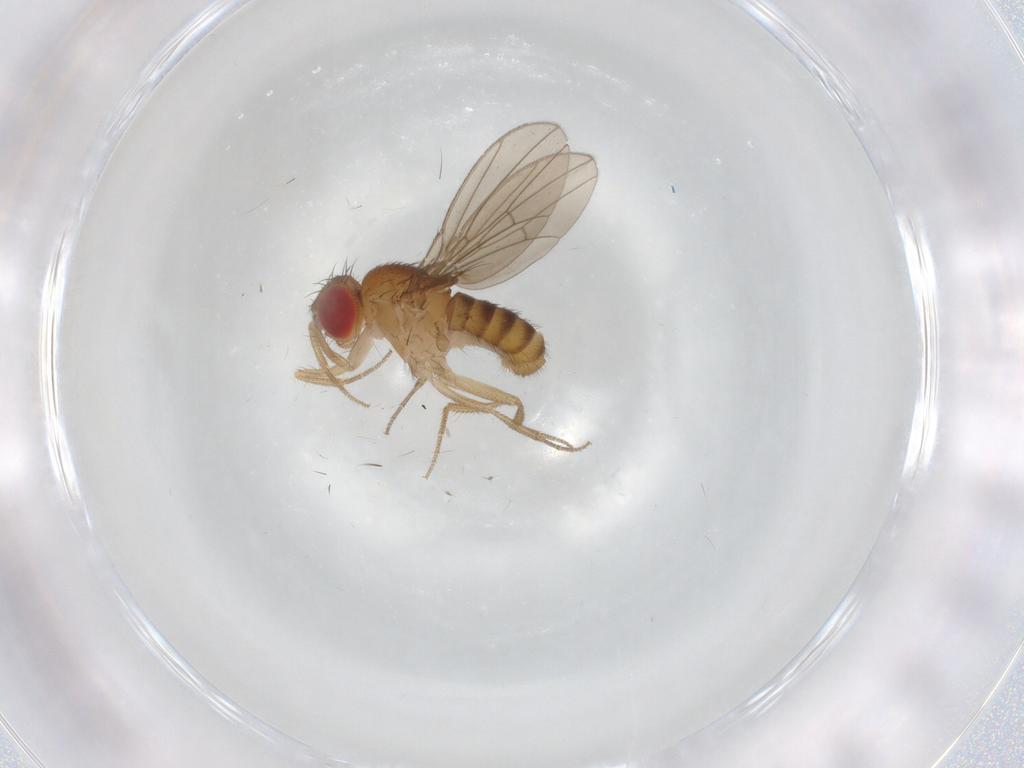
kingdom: Animalia
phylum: Arthropoda
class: Insecta
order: Diptera
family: Drosophilidae
